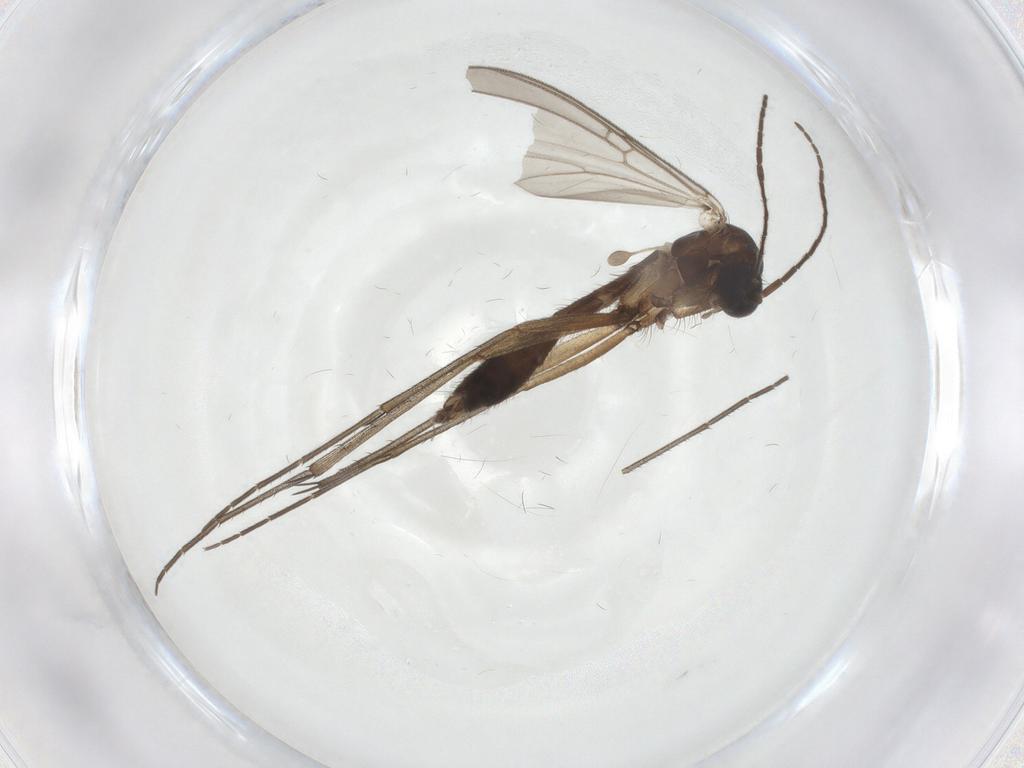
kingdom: Animalia
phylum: Arthropoda
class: Insecta
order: Diptera
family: Mycetophilidae
